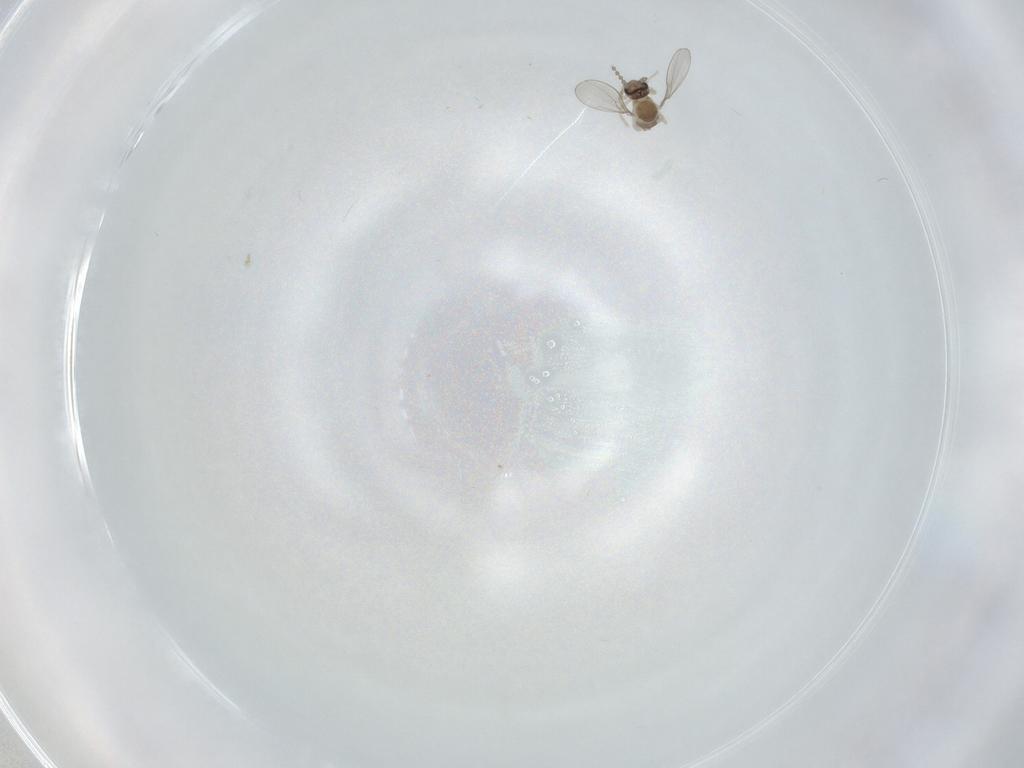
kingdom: Animalia
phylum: Arthropoda
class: Insecta
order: Diptera
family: Cecidomyiidae
